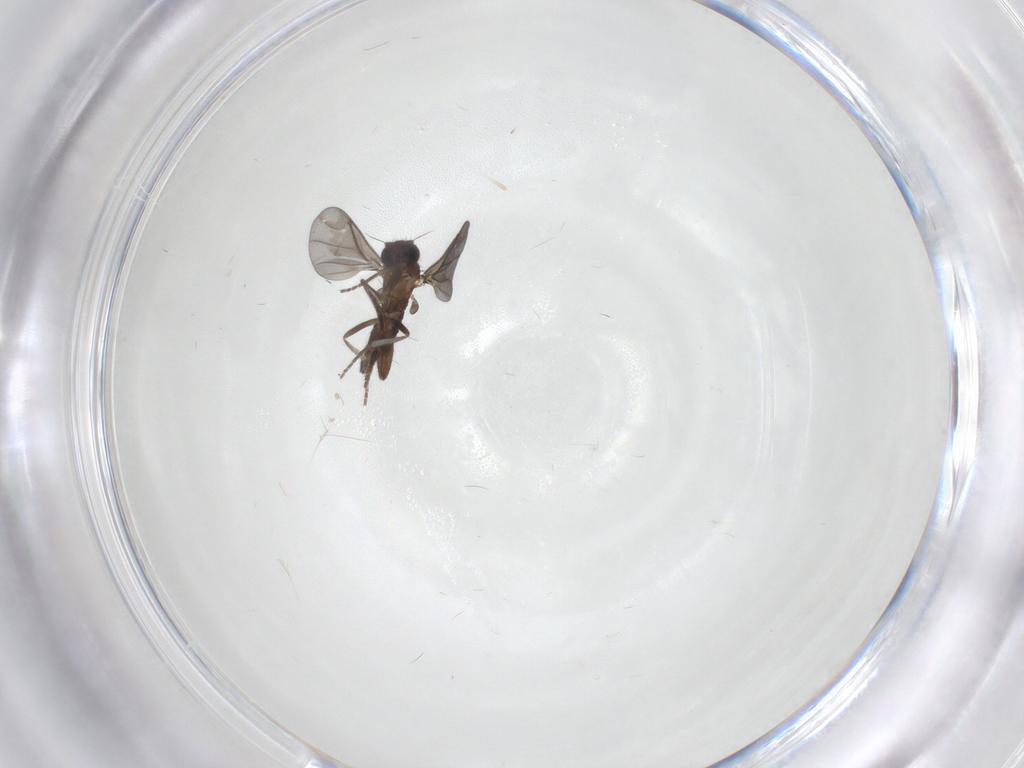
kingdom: Animalia
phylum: Arthropoda
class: Insecta
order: Diptera
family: Phoridae
